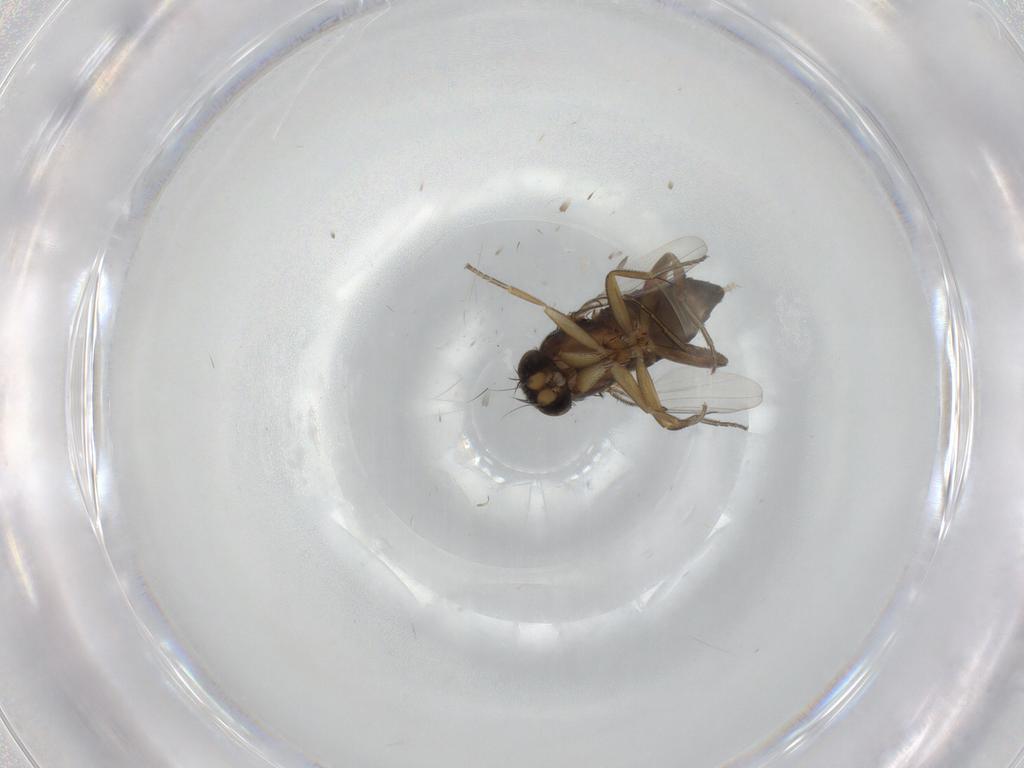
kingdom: Animalia
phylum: Arthropoda
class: Insecta
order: Diptera
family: Phoridae
